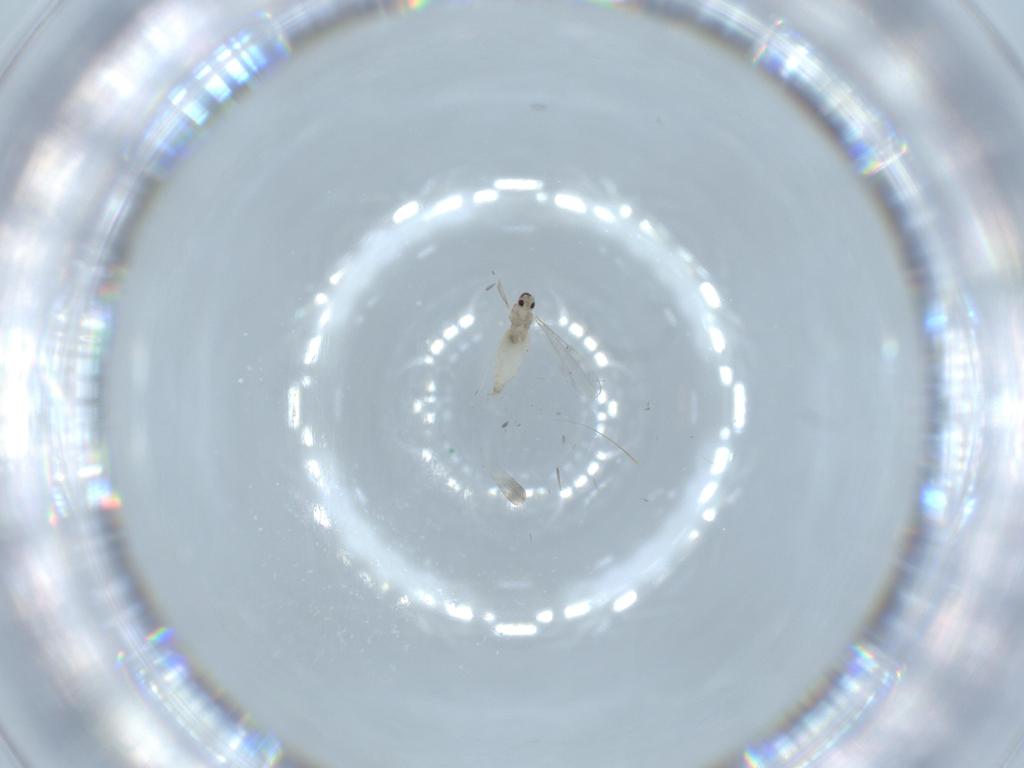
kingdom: Animalia
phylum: Arthropoda
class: Insecta
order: Diptera
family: Cecidomyiidae
